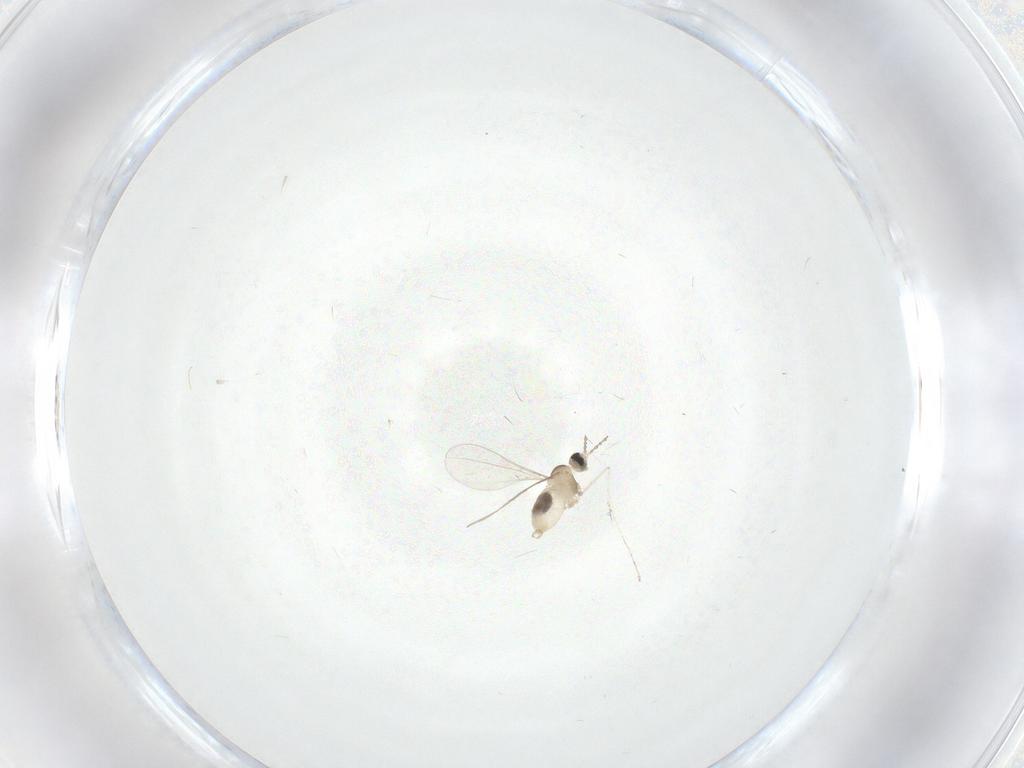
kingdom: Animalia
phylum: Arthropoda
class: Insecta
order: Diptera
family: Cecidomyiidae
